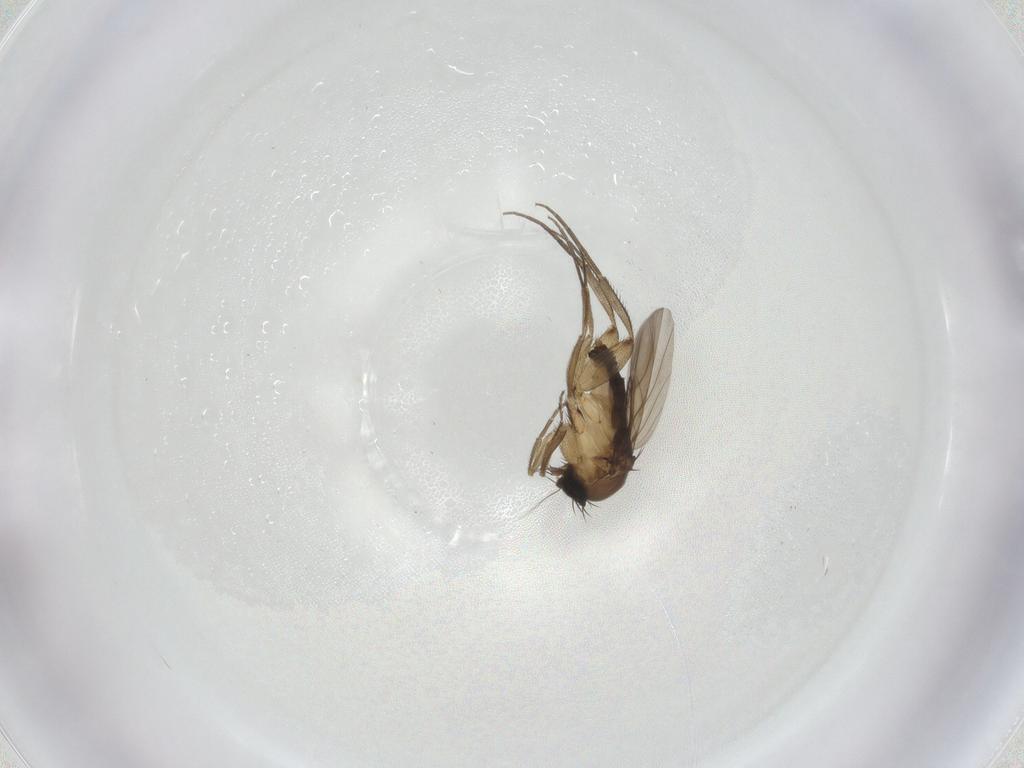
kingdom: Animalia
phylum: Arthropoda
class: Insecta
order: Diptera
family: Phoridae
